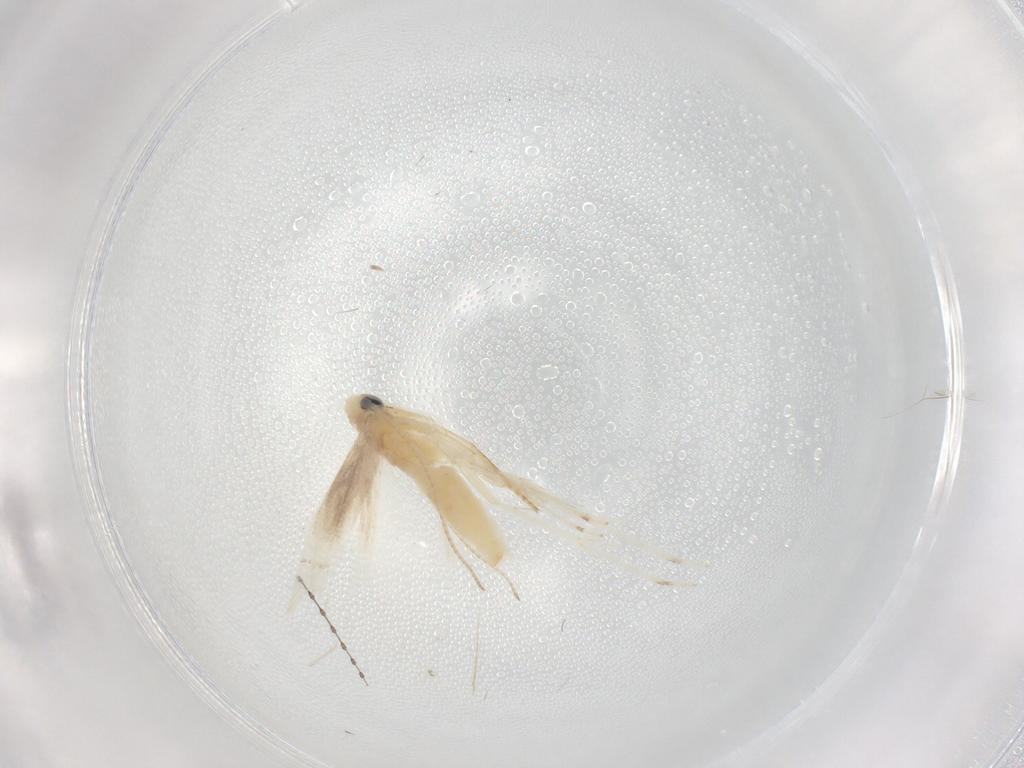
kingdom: Animalia
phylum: Arthropoda
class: Insecta
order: Lepidoptera
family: Gracillariidae
